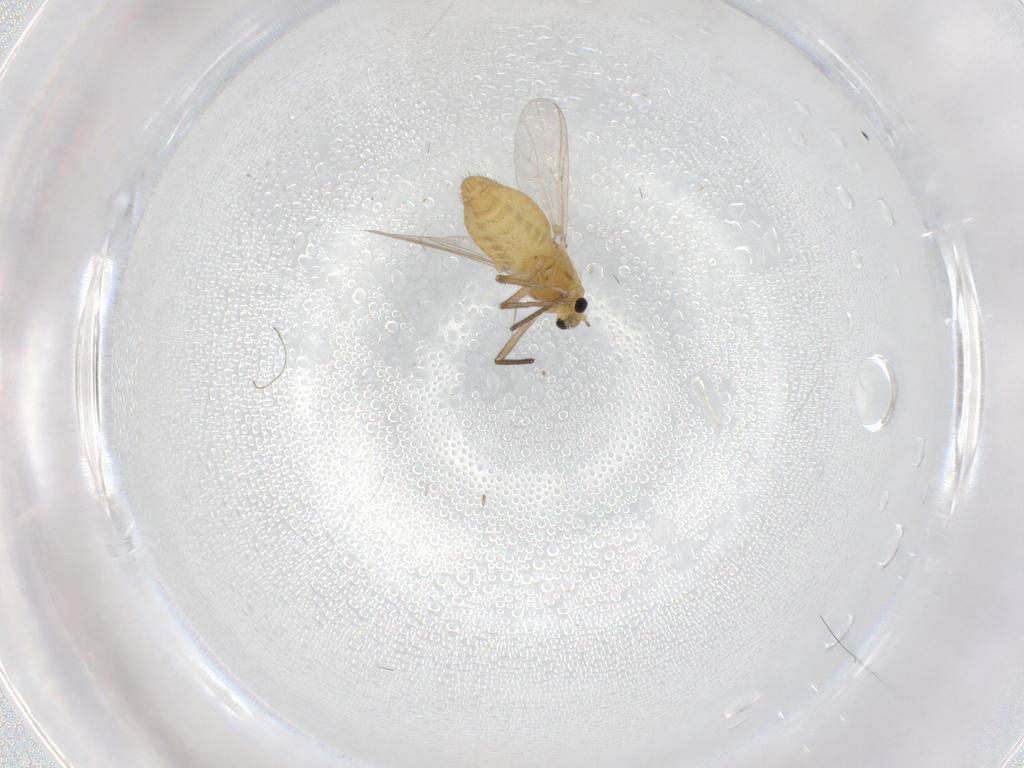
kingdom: Animalia
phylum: Arthropoda
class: Insecta
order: Diptera
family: Chironomidae
